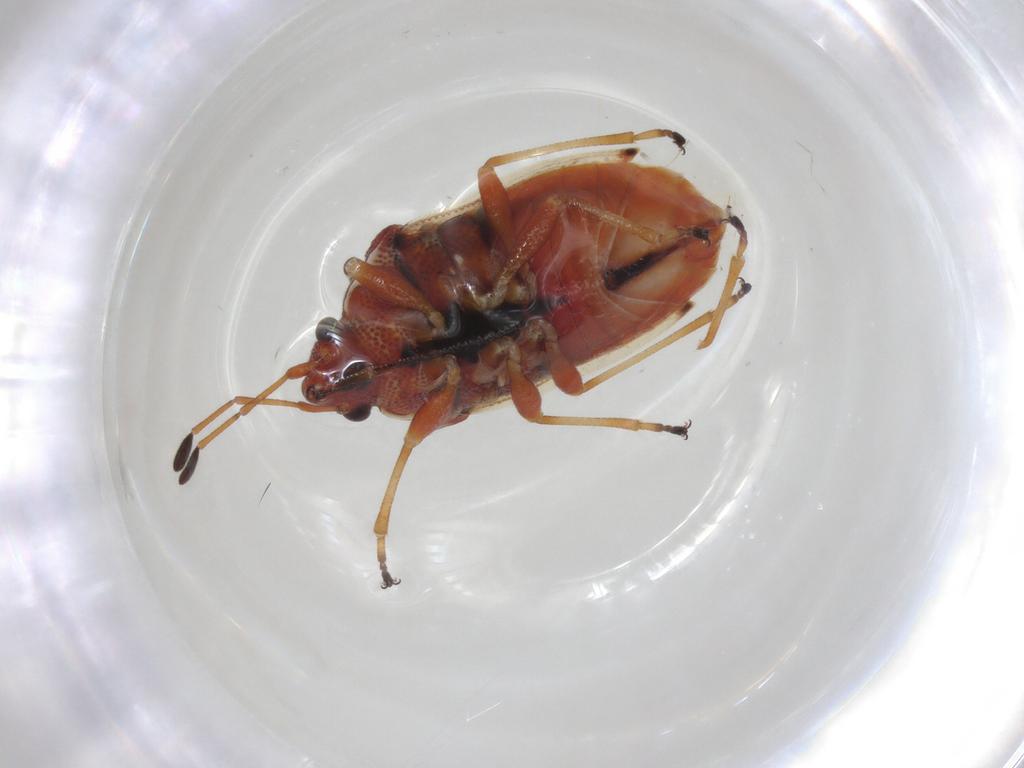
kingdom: Animalia
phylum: Arthropoda
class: Insecta
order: Hemiptera
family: Lygaeidae
